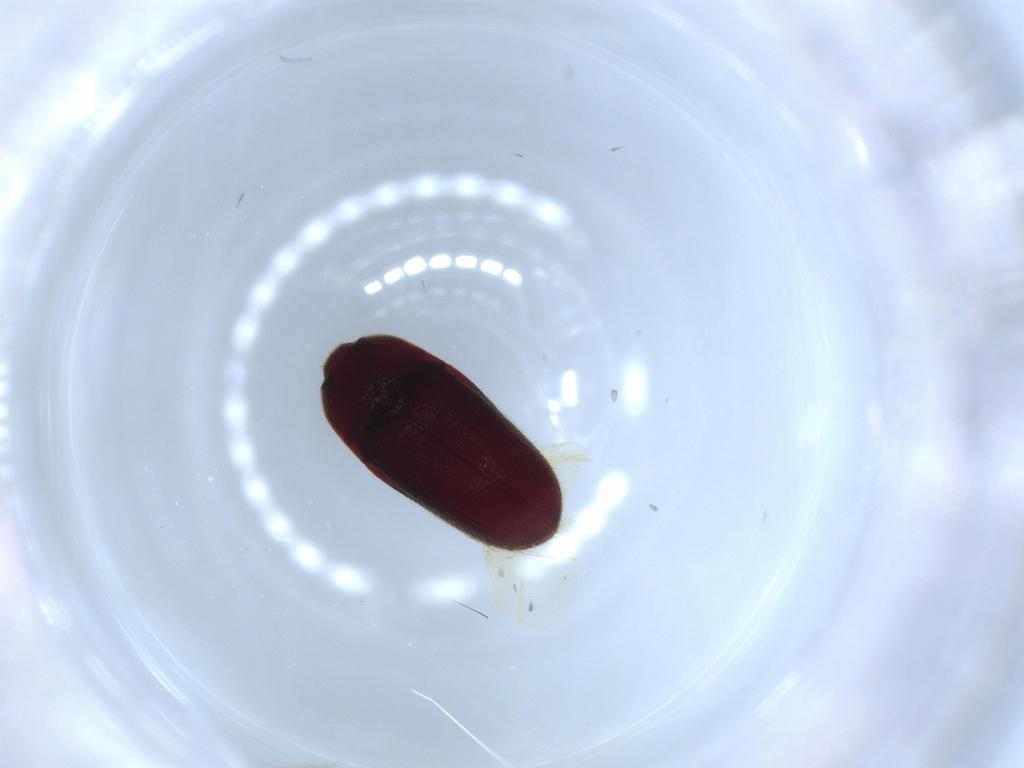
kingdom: Animalia
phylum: Arthropoda
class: Insecta
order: Coleoptera
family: Throscidae
